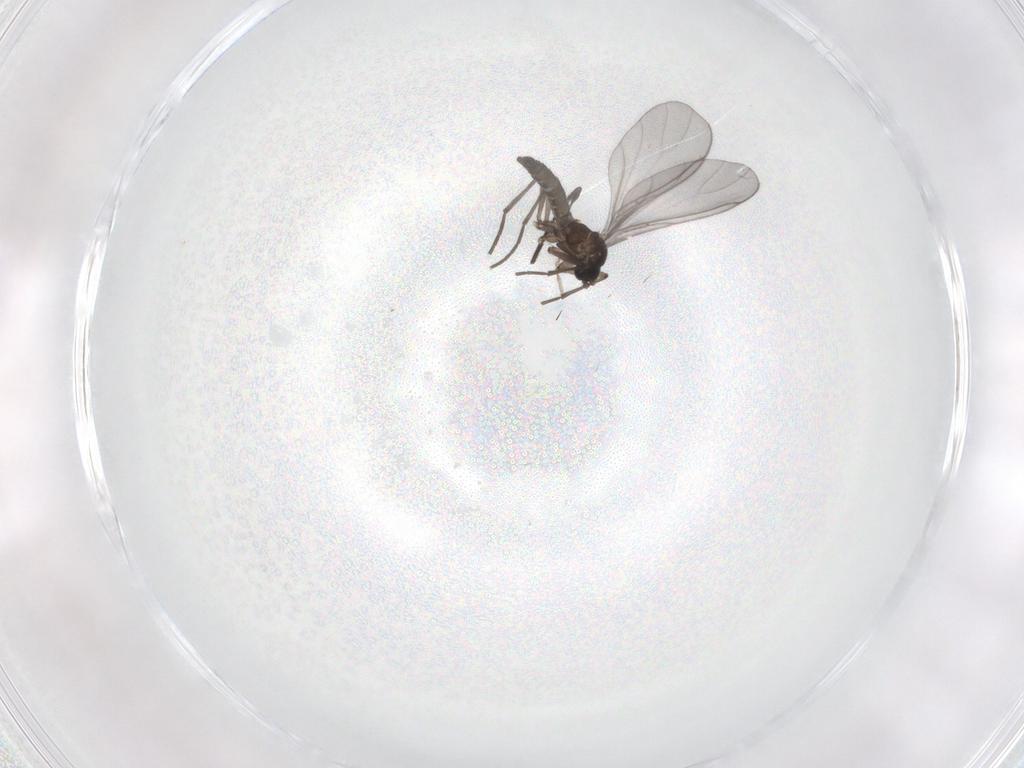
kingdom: Animalia
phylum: Arthropoda
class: Insecta
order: Diptera
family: Sciaridae
